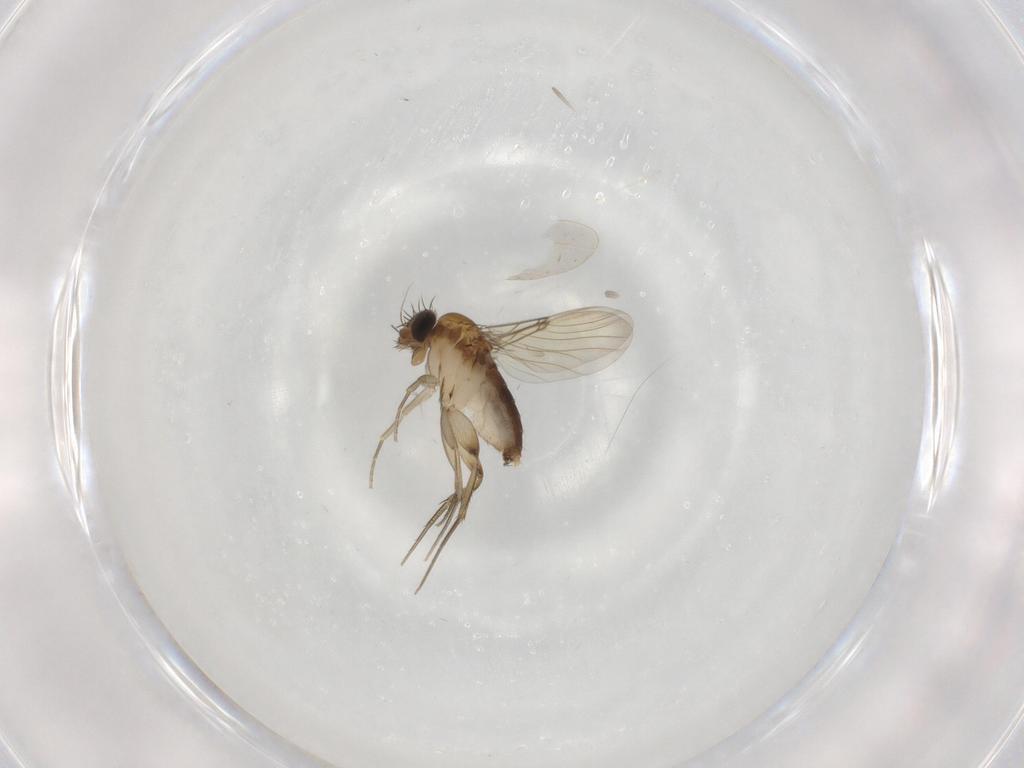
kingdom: Animalia
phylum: Arthropoda
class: Insecta
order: Diptera
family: Phoridae
